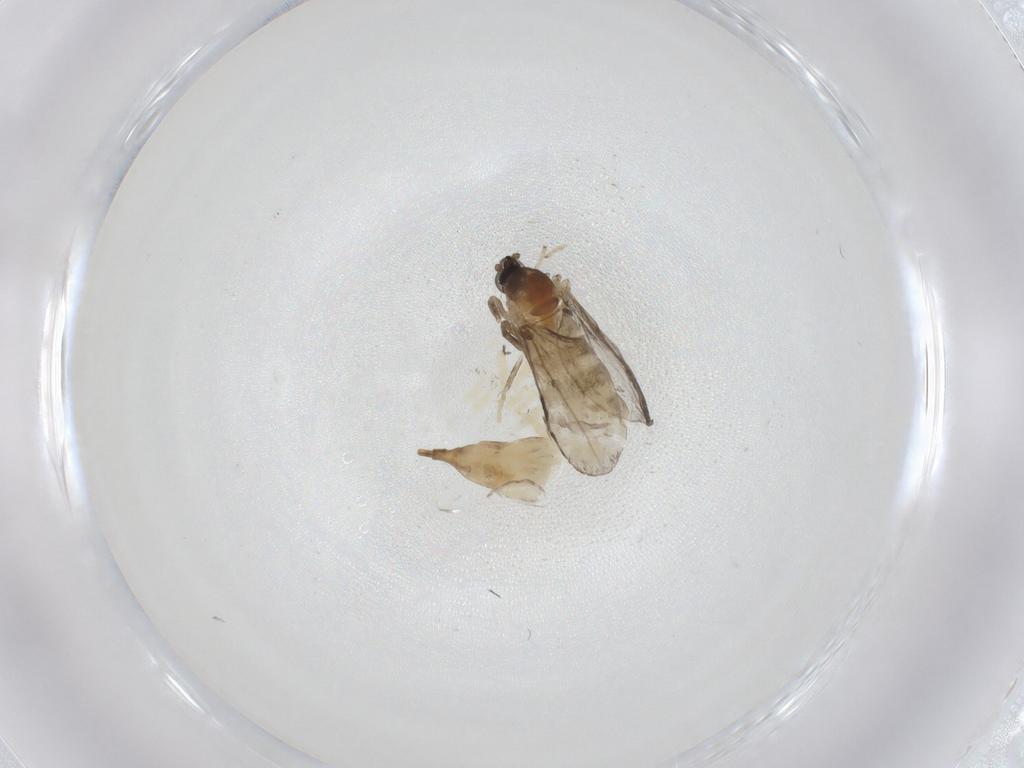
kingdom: Animalia
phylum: Arthropoda
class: Insecta
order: Diptera
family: Cecidomyiidae
